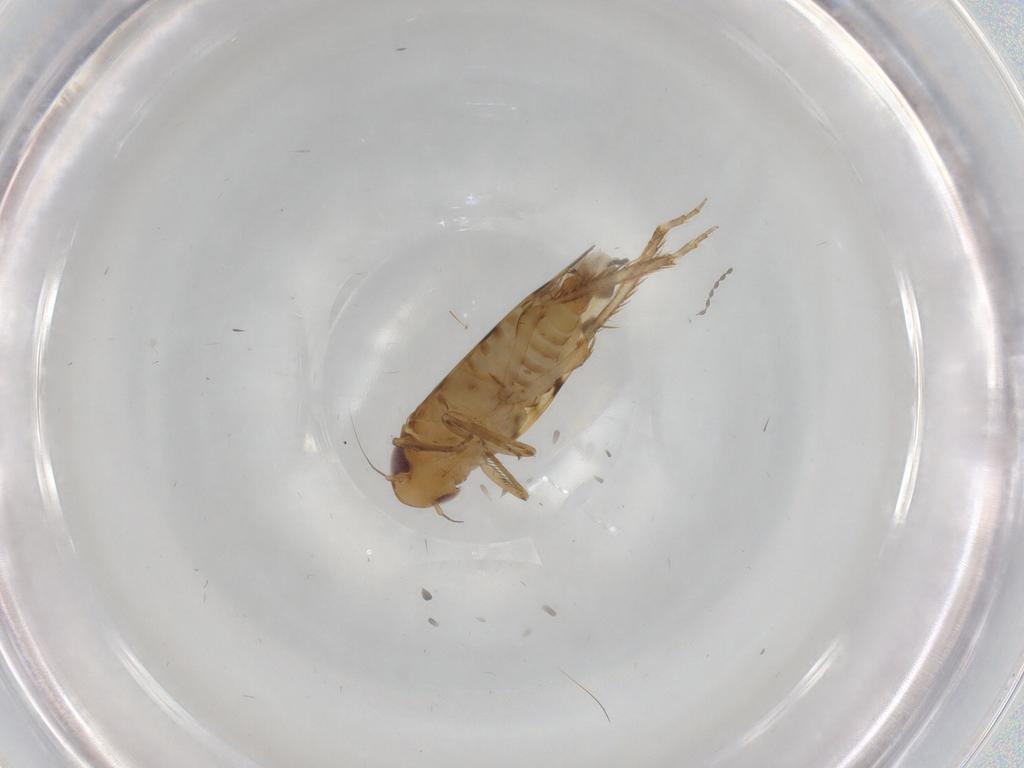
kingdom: Animalia
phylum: Arthropoda
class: Insecta
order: Hemiptera
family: Cicadellidae
